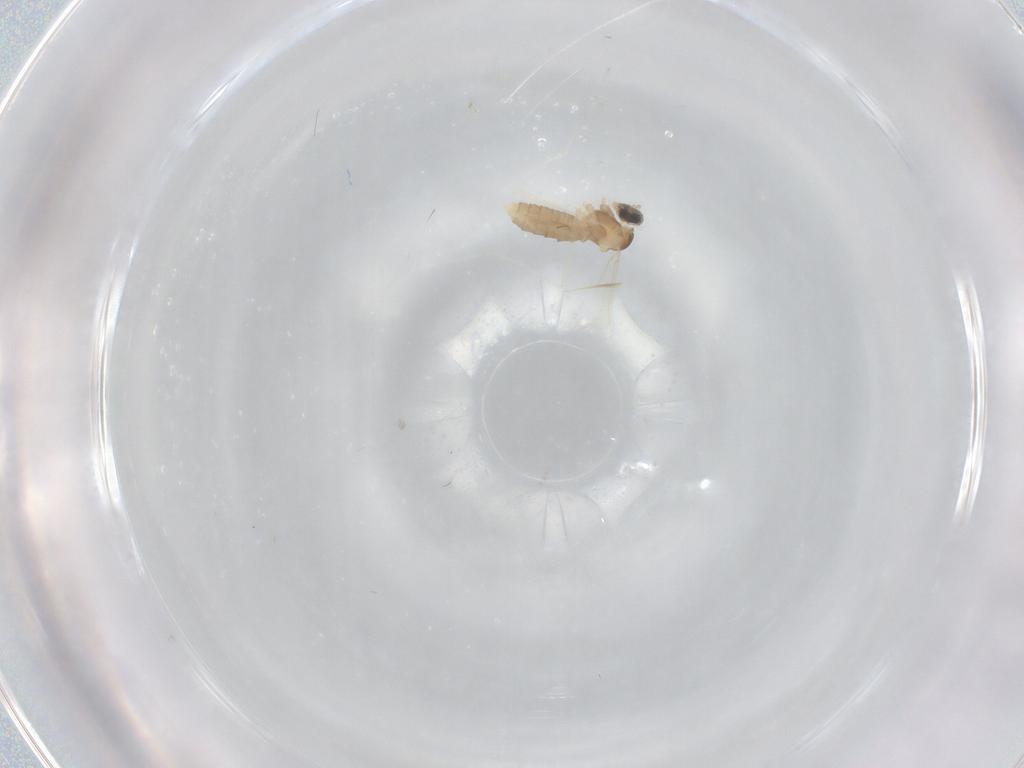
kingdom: Animalia
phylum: Arthropoda
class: Insecta
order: Diptera
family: Cecidomyiidae
